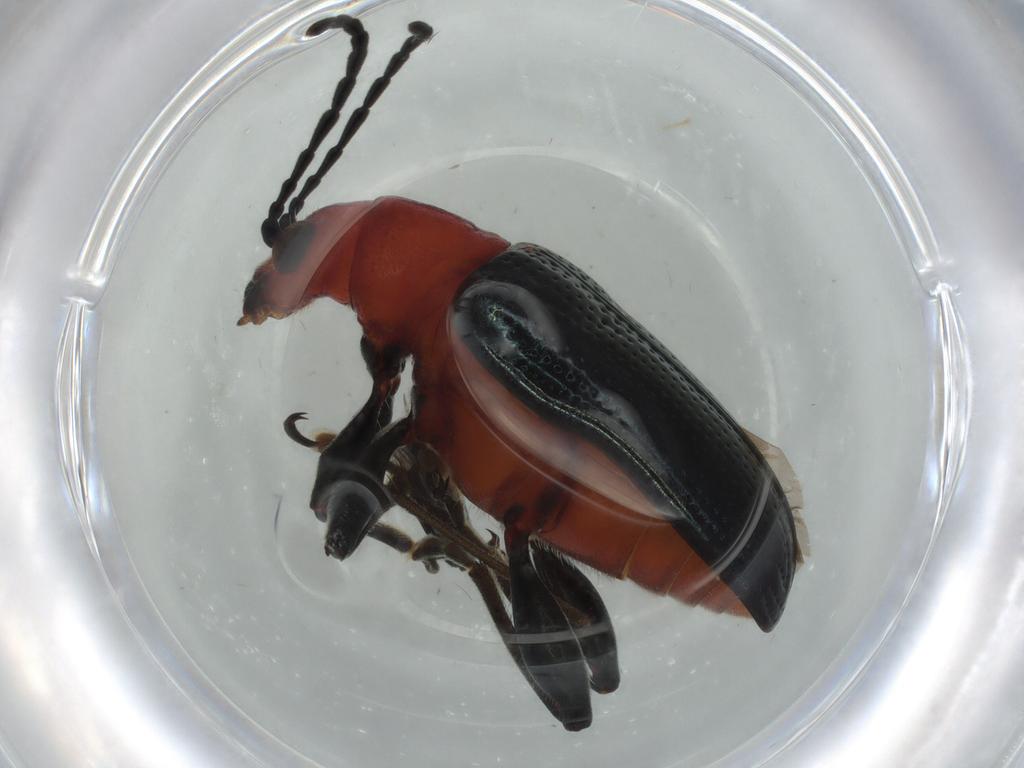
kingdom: Animalia
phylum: Arthropoda
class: Insecta
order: Coleoptera
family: Chrysomelidae
